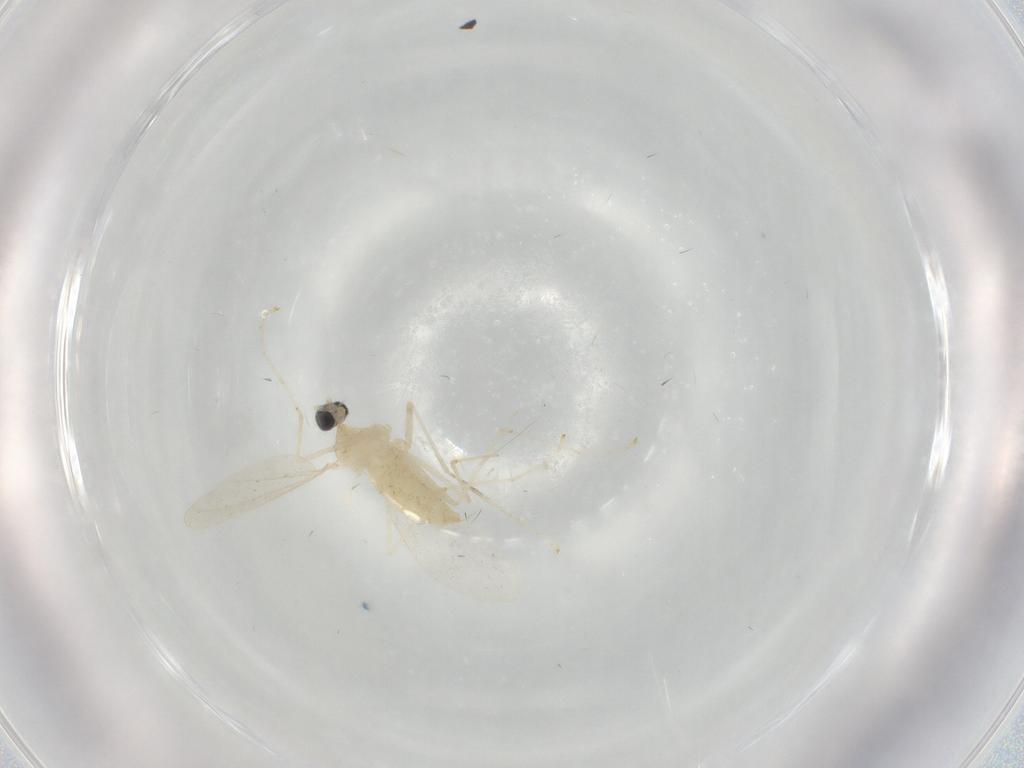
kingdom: Animalia
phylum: Arthropoda
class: Insecta
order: Diptera
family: Cecidomyiidae
